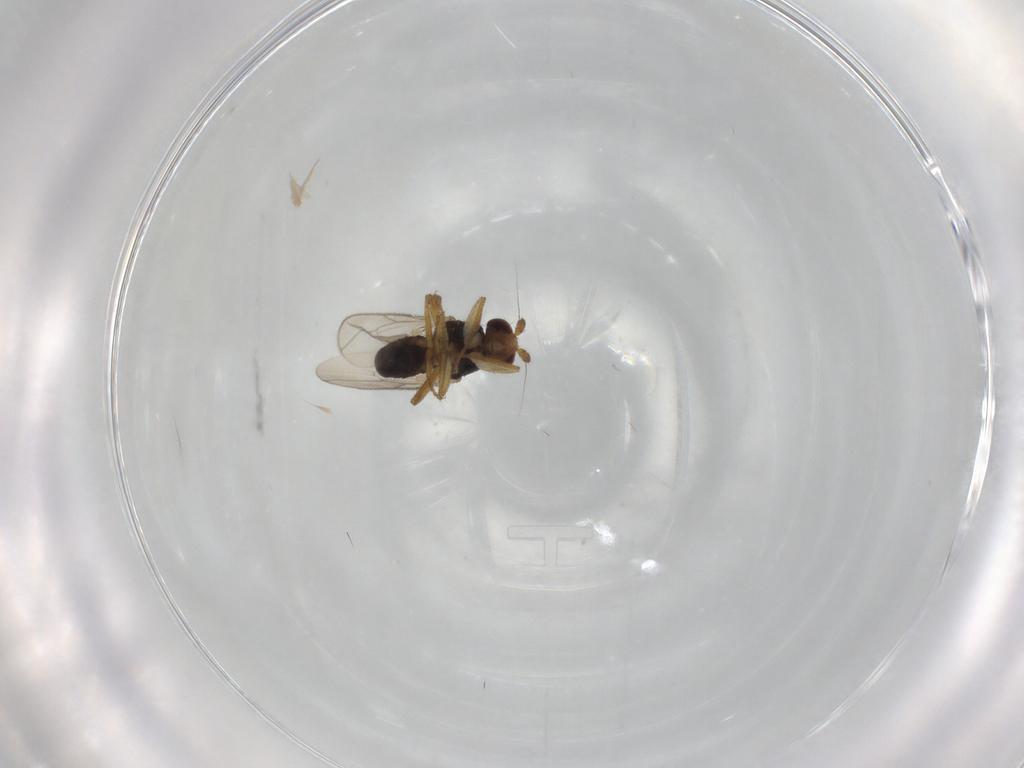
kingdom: Animalia
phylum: Arthropoda
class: Insecta
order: Diptera
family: Sphaeroceridae
